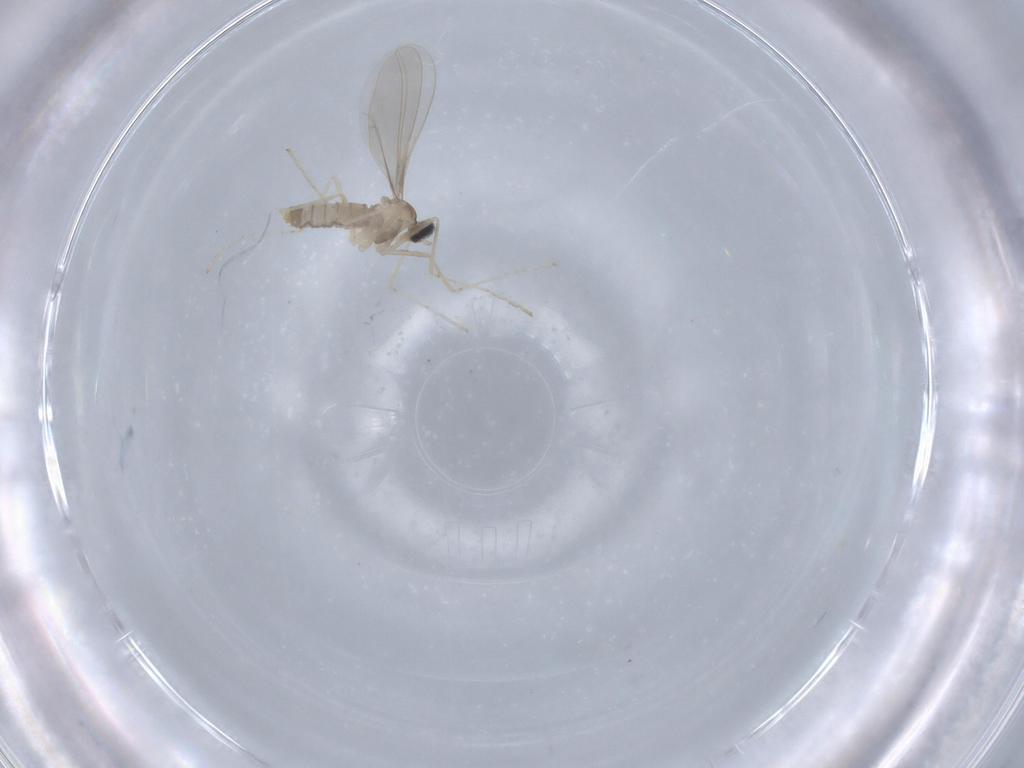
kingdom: Animalia
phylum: Arthropoda
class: Insecta
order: Diptera
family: Cecidomyiidae
